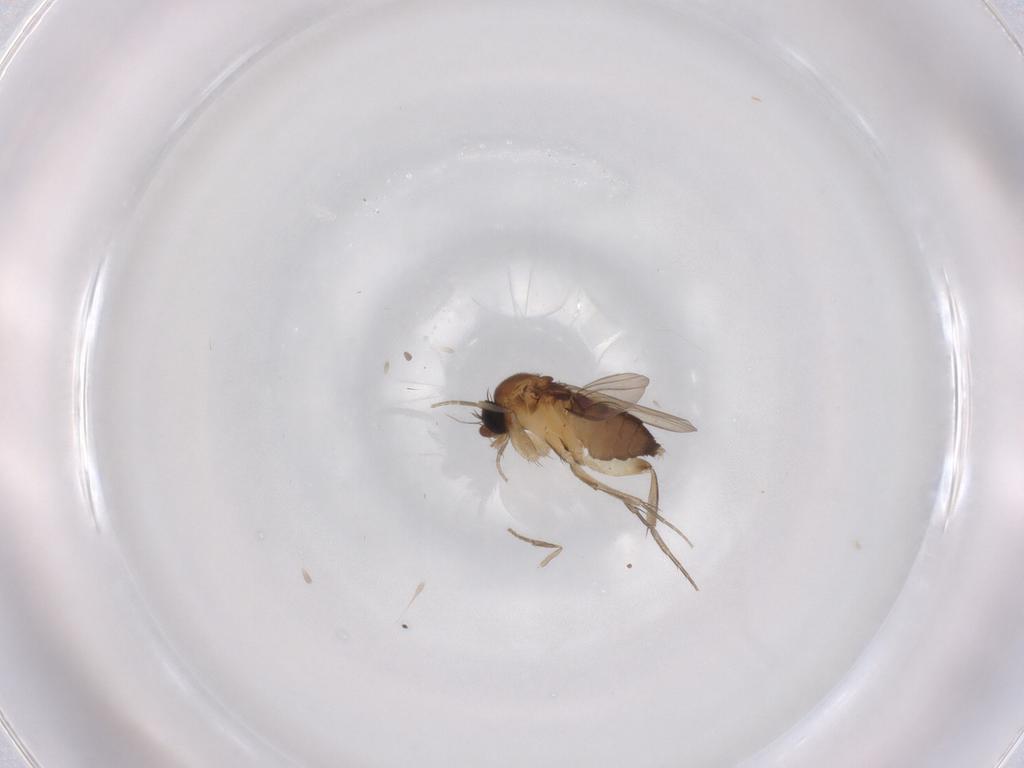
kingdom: Animalia
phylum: Arthropoda
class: Insecta
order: Diptera
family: Phoridae
